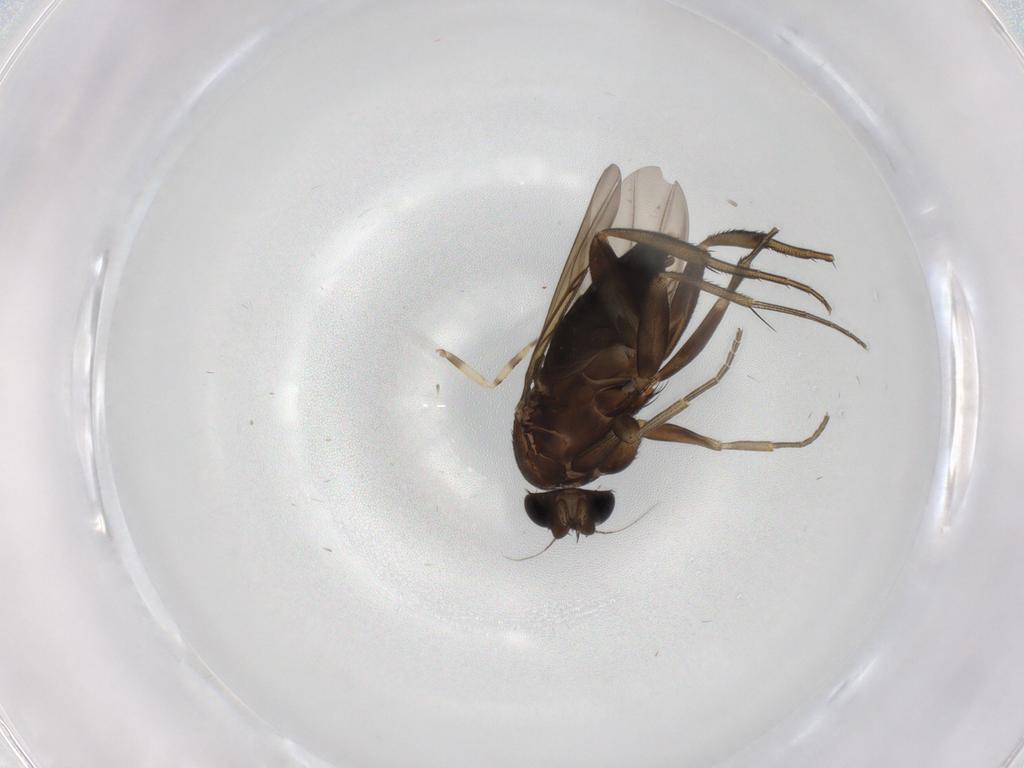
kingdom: Animalia
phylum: Arthropoda
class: Insecta
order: Diptera
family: Phoridae
